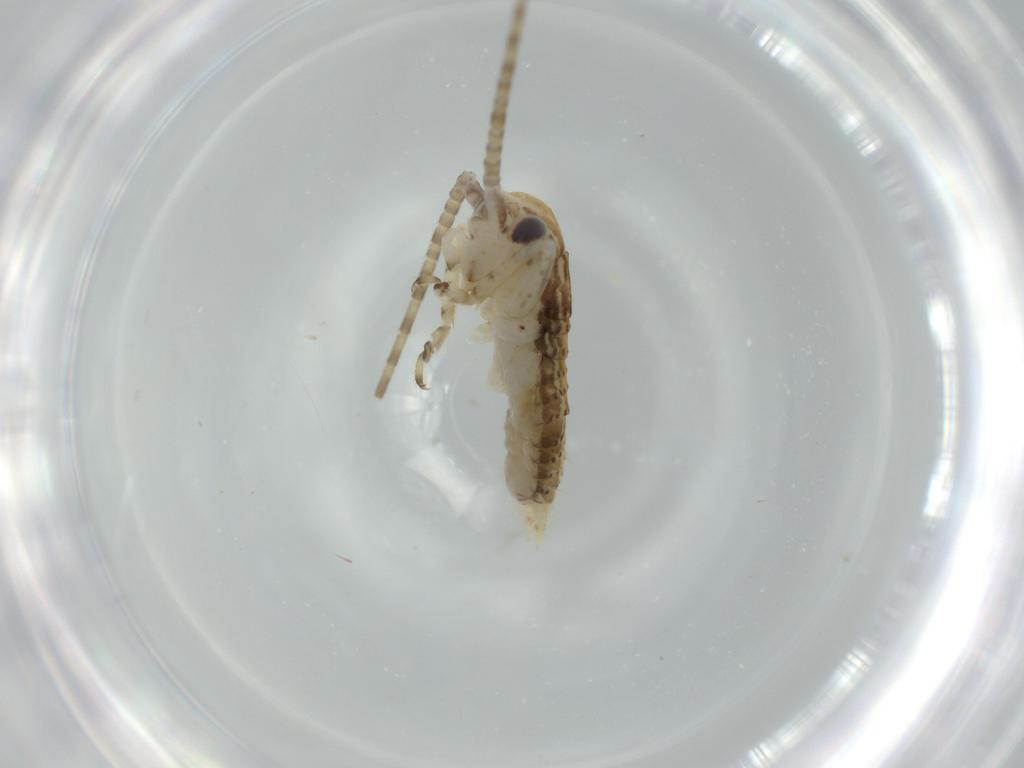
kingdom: Animalia
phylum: Arthropoda
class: Insecta
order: Orthoptera
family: Gryllidae
